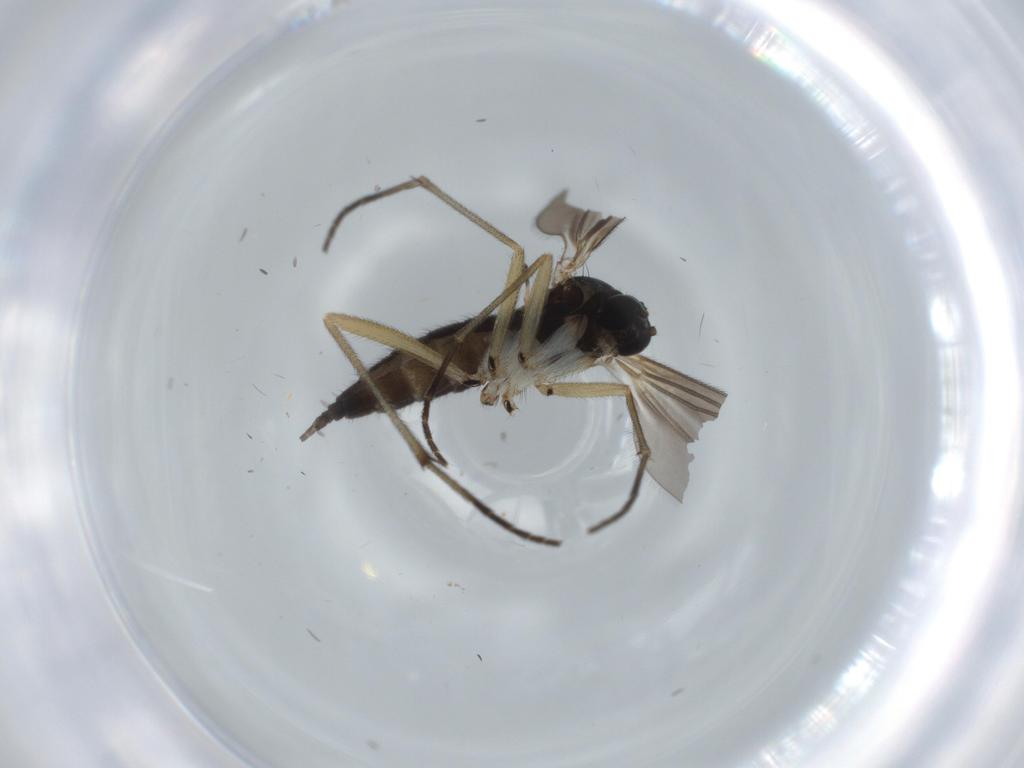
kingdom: Animalia
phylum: Arthropoda
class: Insecta
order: Diptera
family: Sciaridae
